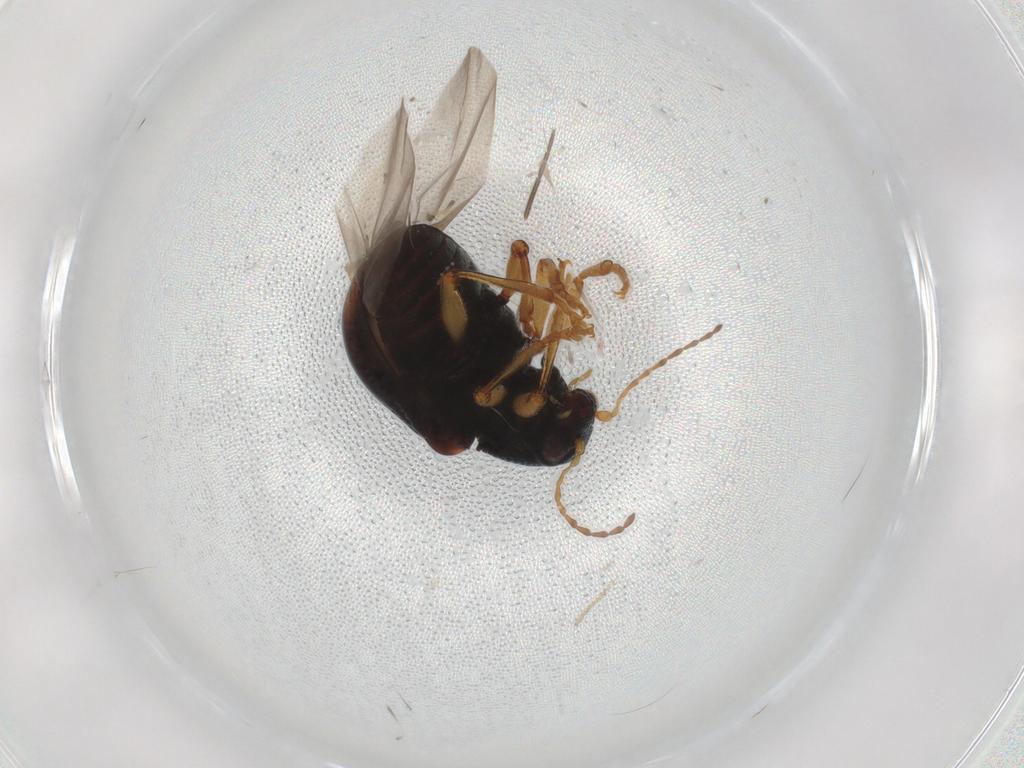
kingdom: Animalia
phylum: Arthropoda
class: Insecta
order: Coleoptera
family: Chrysomelidae
